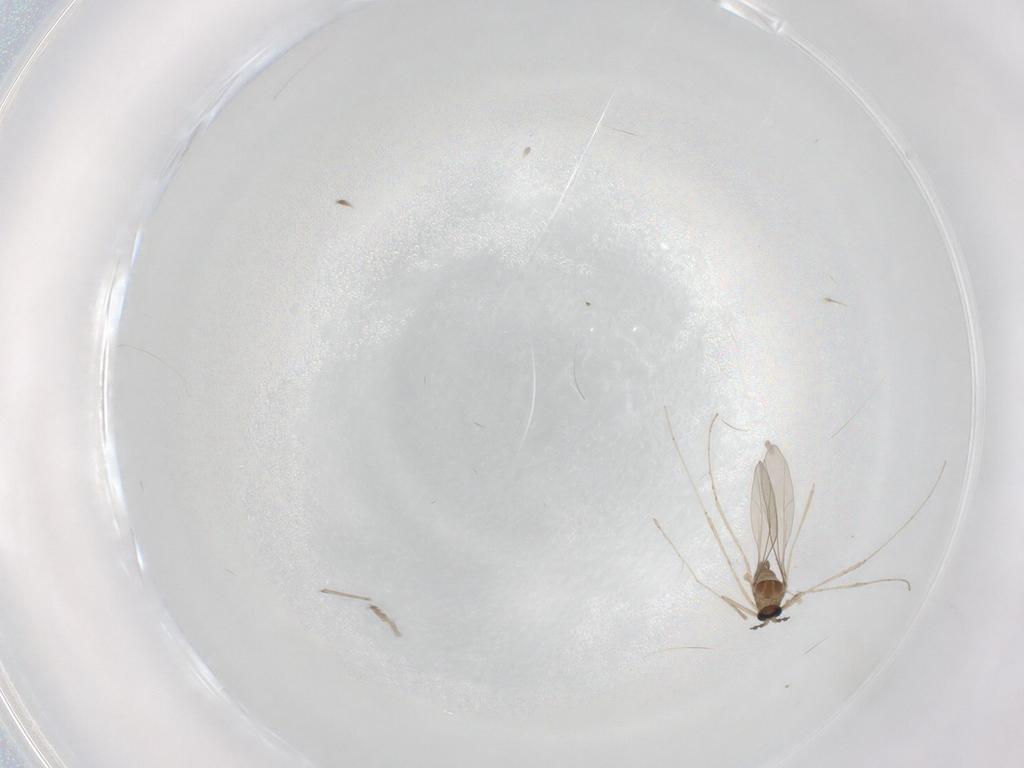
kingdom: Animalia
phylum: Arthropoda
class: Insecta
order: Diptera
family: Cecidomyiidae
